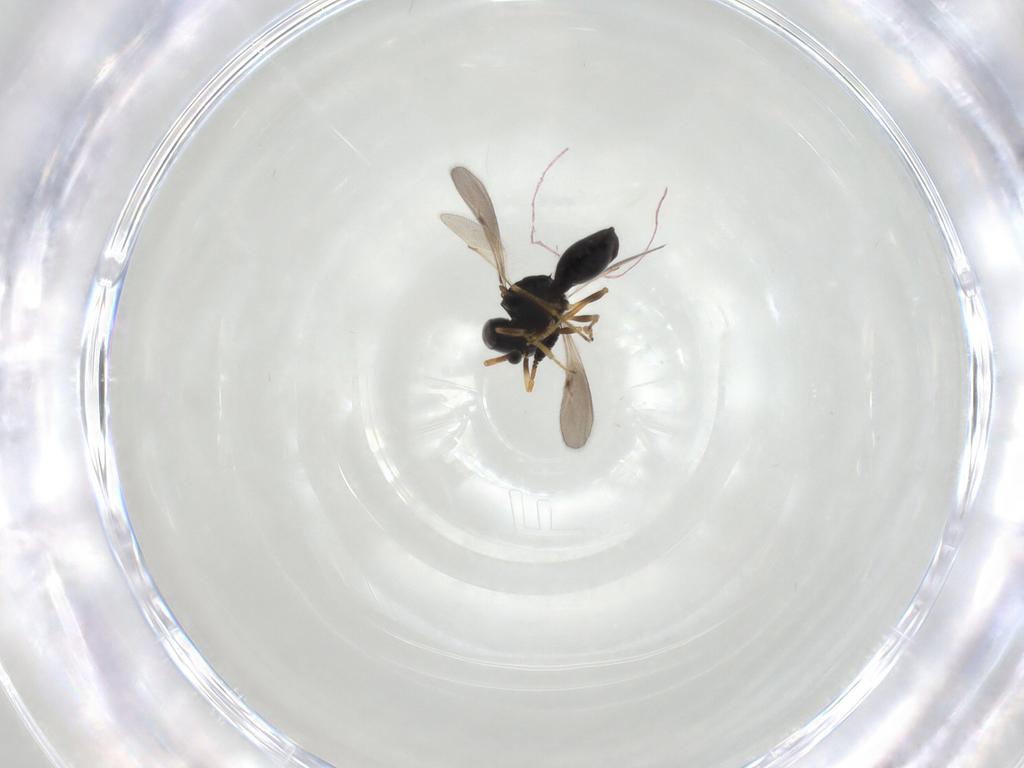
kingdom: Animalia
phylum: Arthropoda
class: Insecta
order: Hymenoptera
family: Scelionidae
